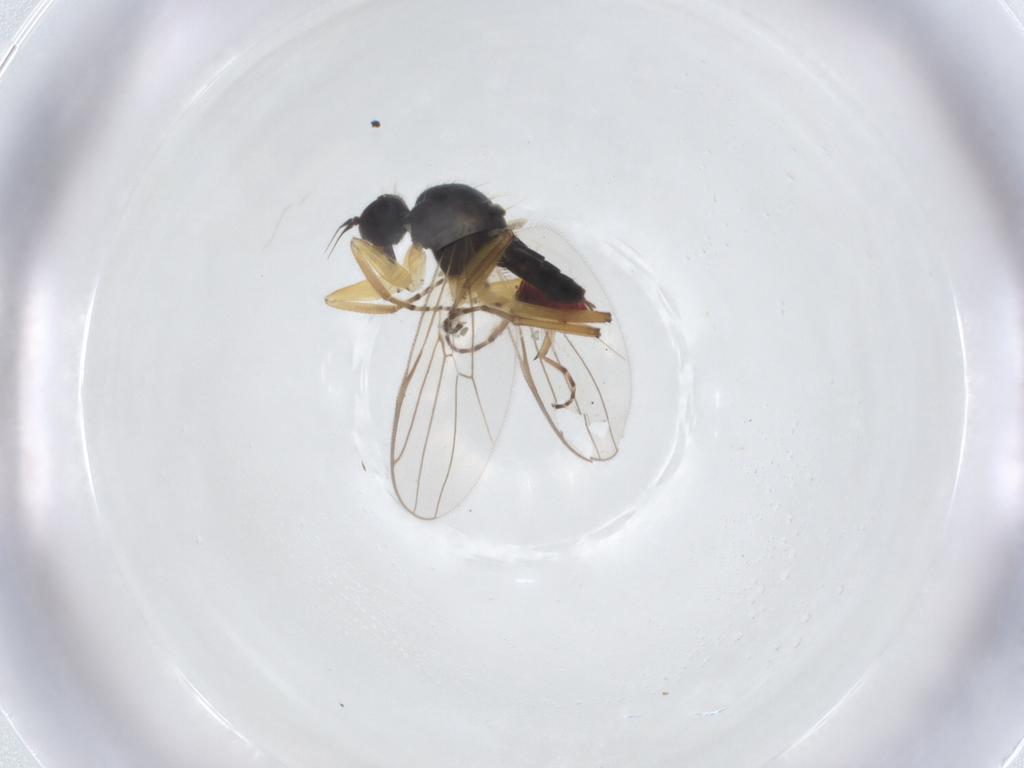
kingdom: Animalia
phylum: Arthropoda
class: Insecta
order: Diptera
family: Hybotidae
